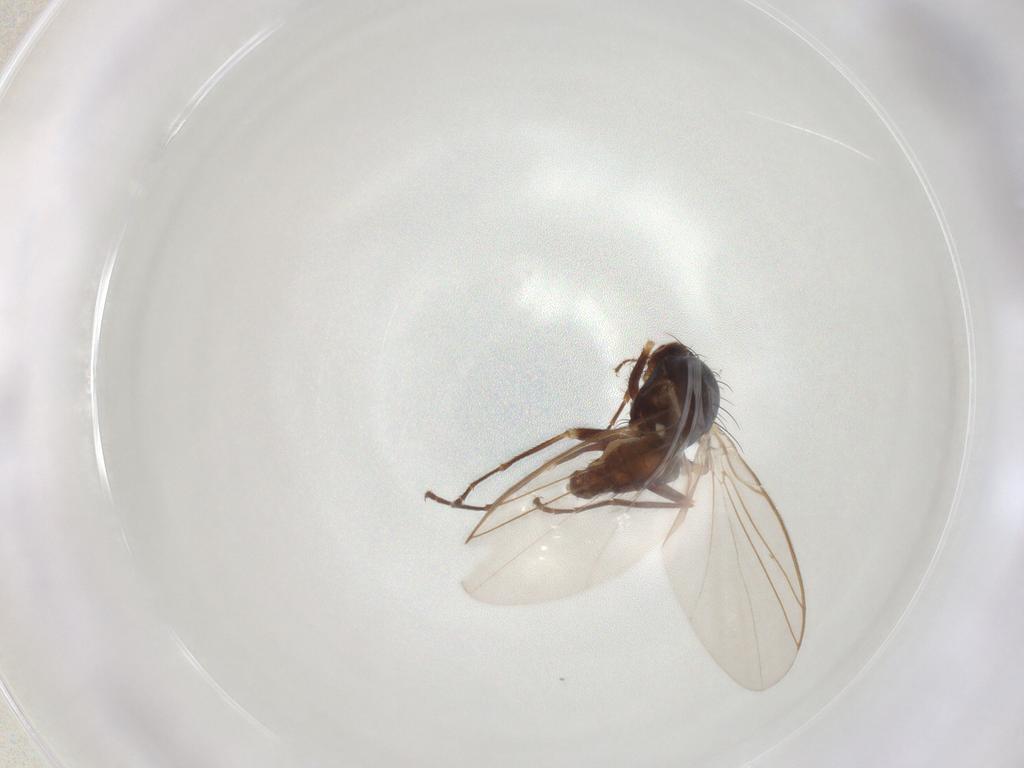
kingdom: Animalia
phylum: Arthropoda
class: Insecta
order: Diptera
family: Agromyzidae
